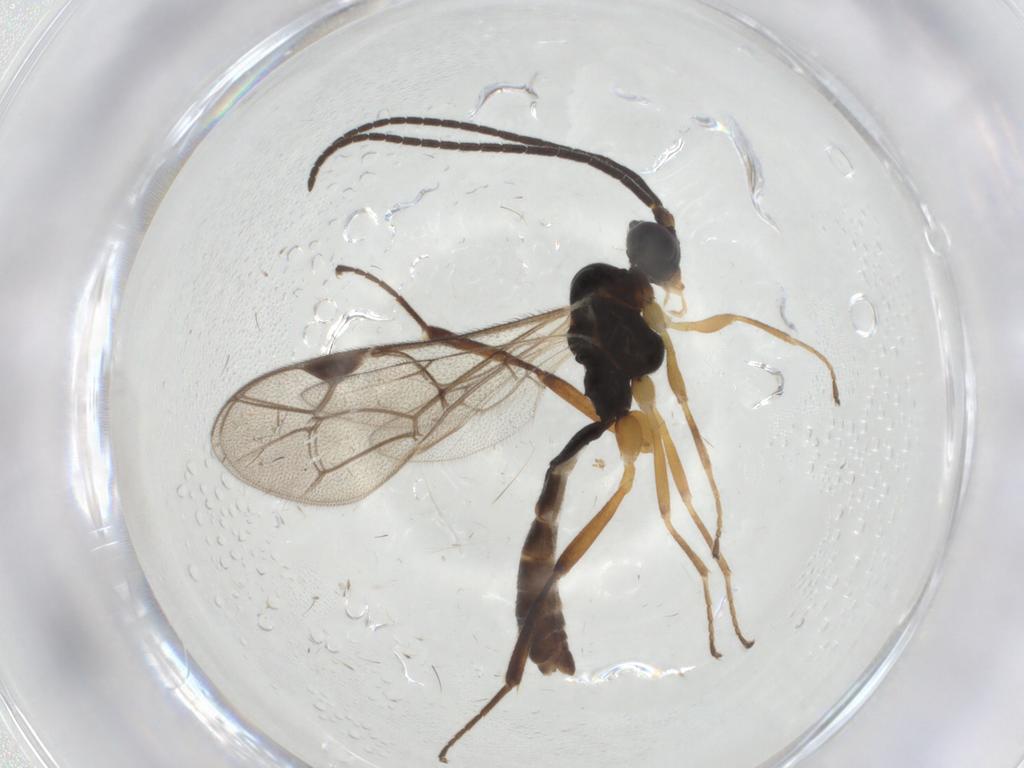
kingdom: Animalia
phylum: Arthropoda
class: Insecta
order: Hymenoptera
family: Ichneumonidae
